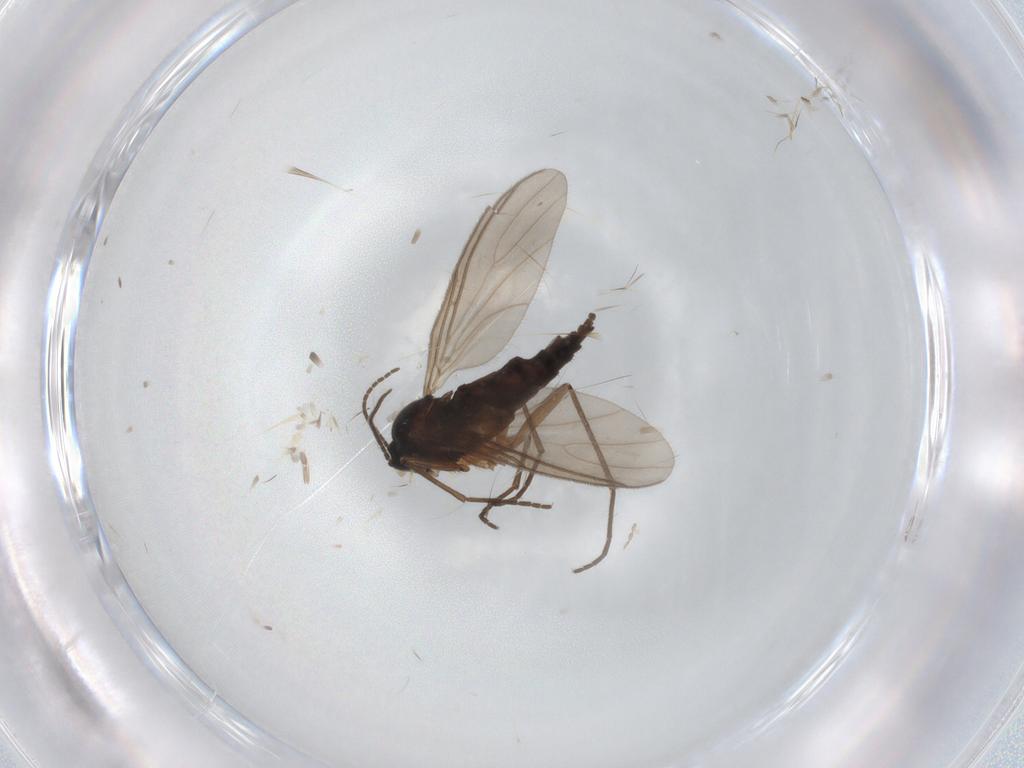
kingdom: Animalia
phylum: Arthropoda
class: Insecta
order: Diptera
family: Sciaridae
